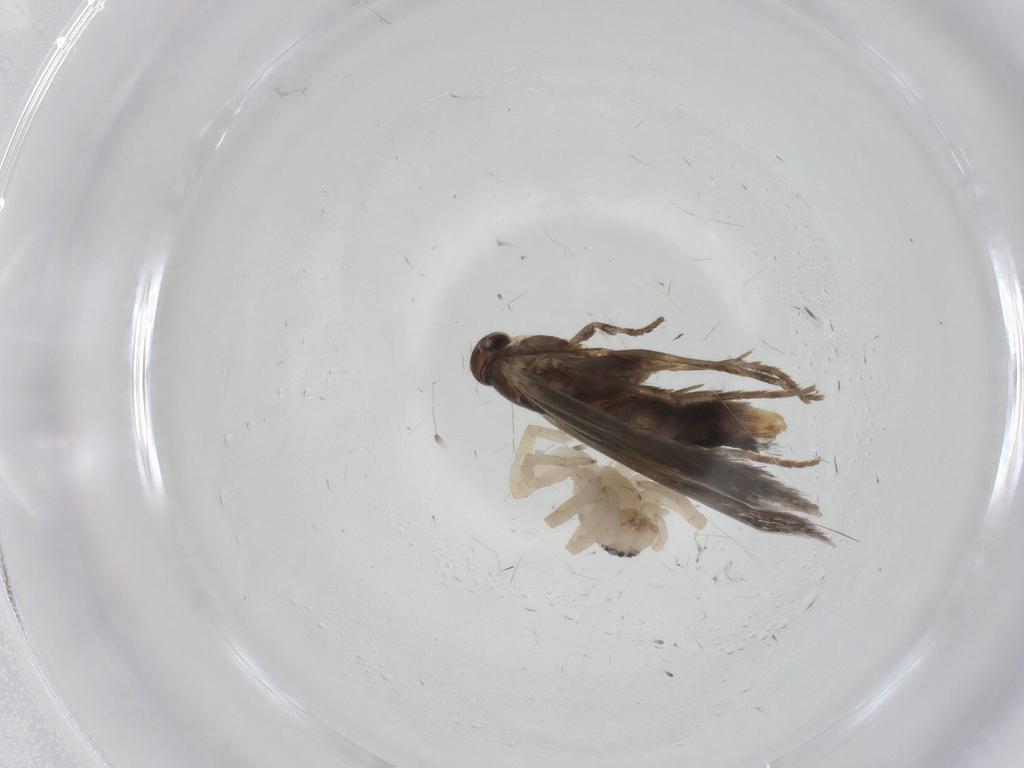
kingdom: Animalia
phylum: Arthropoda
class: Insecta
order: Lepidoptera
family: Elachistidae
